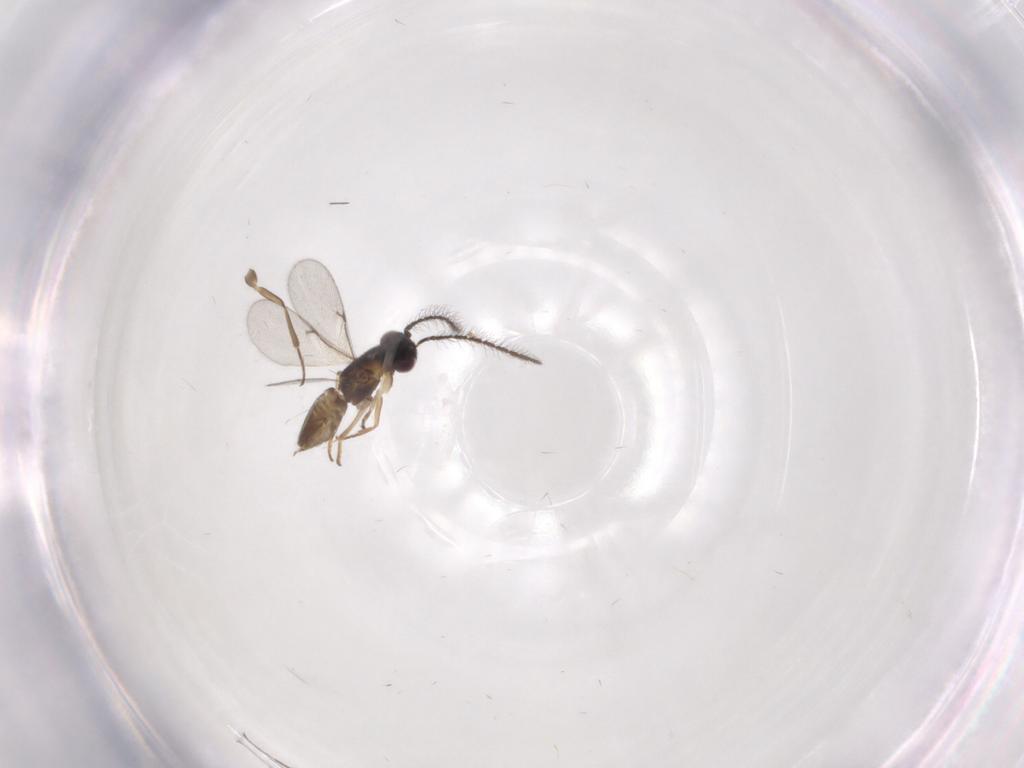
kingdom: Animalia
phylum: Arthropoda
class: Insecta
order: Hymenoptera
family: Encyrtidae
